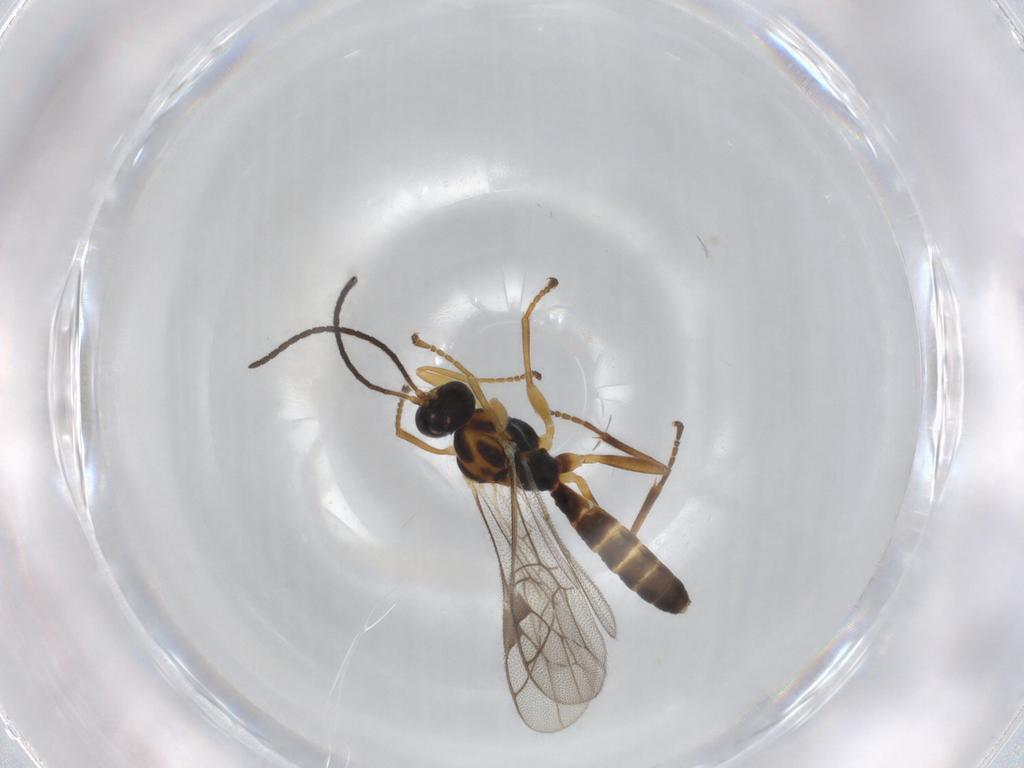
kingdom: Animalia
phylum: Arthropoda
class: Insecta
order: Hymenoptera
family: Ichneumonidae
